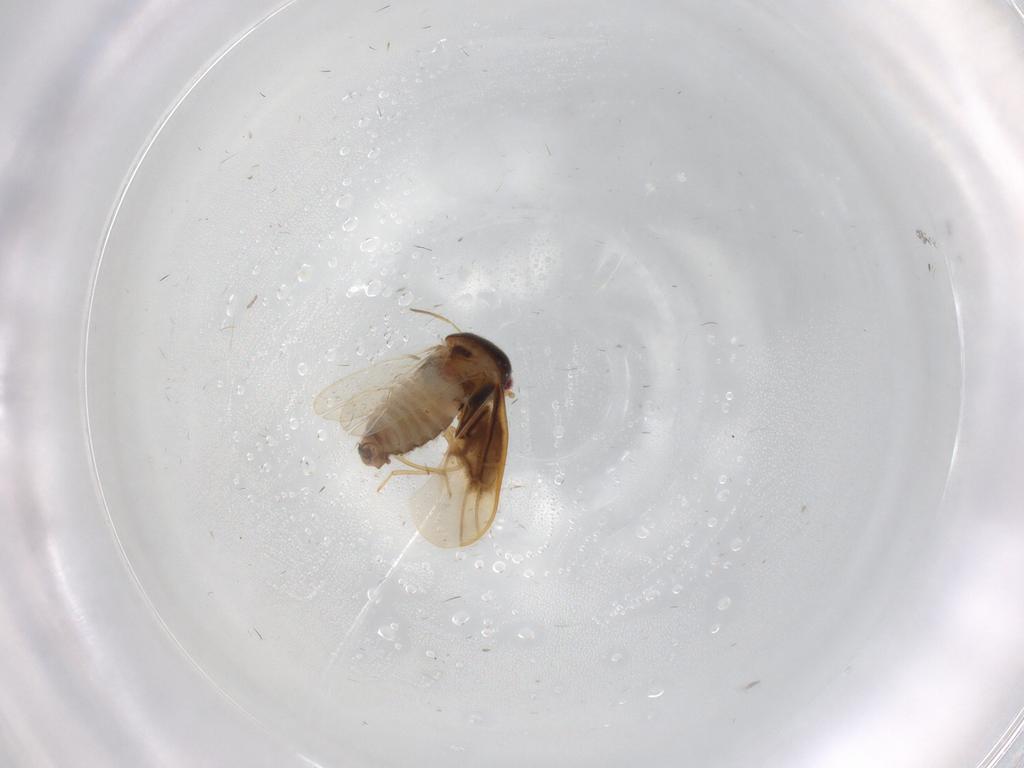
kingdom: Animalia
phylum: Arthropoda
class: Insecta
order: Hemiptera
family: Schizopteridae
